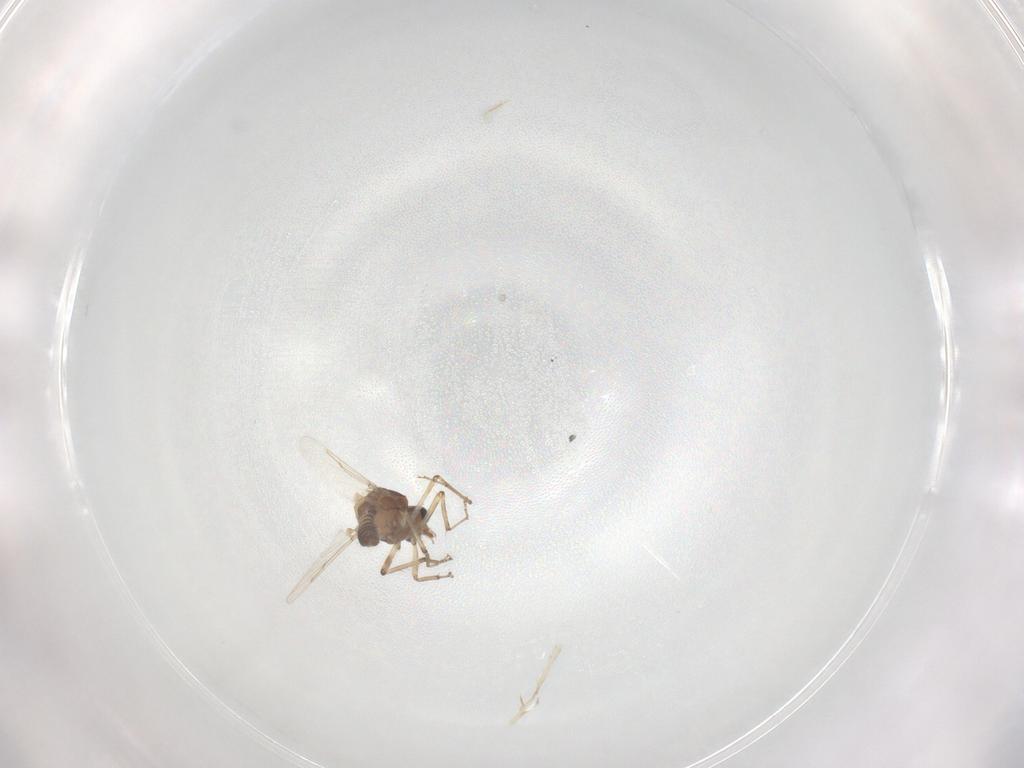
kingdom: Animalia
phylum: Arthropoda
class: Insecta
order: Diptera
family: Ceratopogonidae
